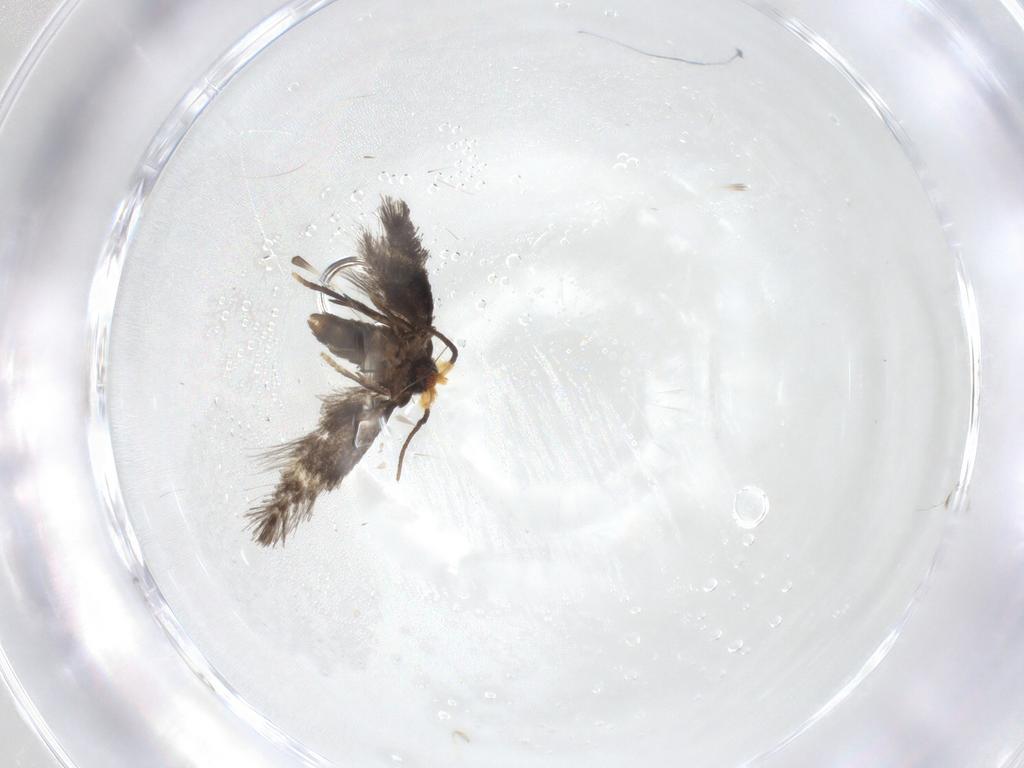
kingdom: Animalia
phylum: Arthropoda
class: Insecta
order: Lepidoptera
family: Nepticulidae
